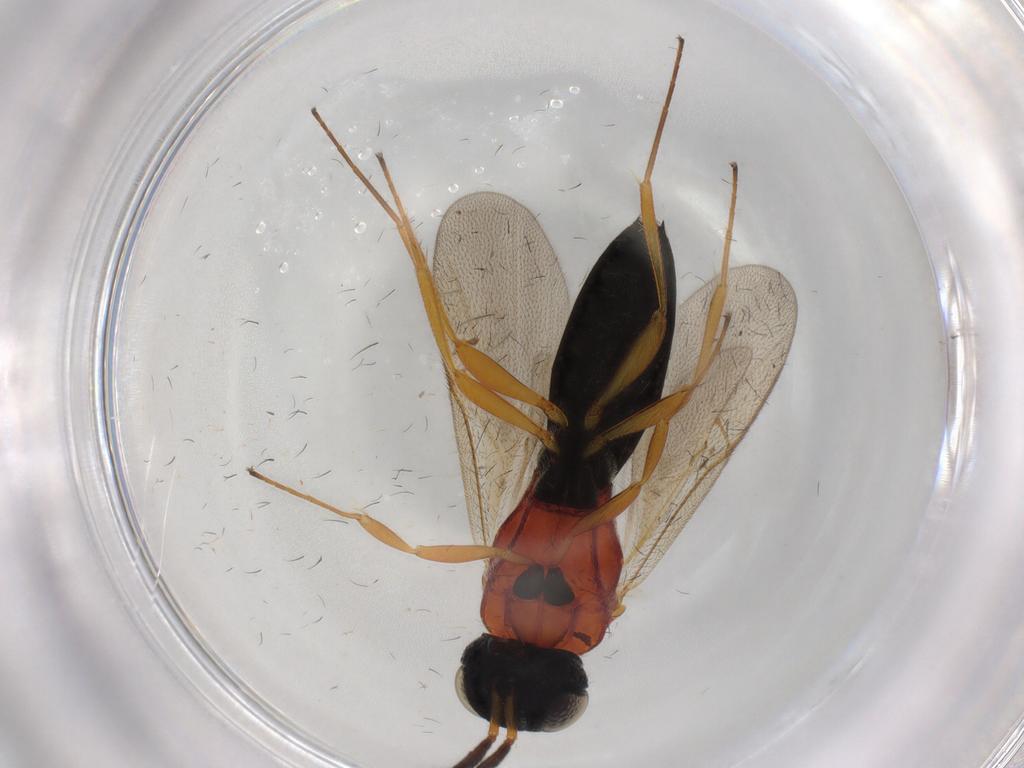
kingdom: Animalia
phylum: Arthropoda
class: Insecta
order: Hymenoptera
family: Scelionidae
